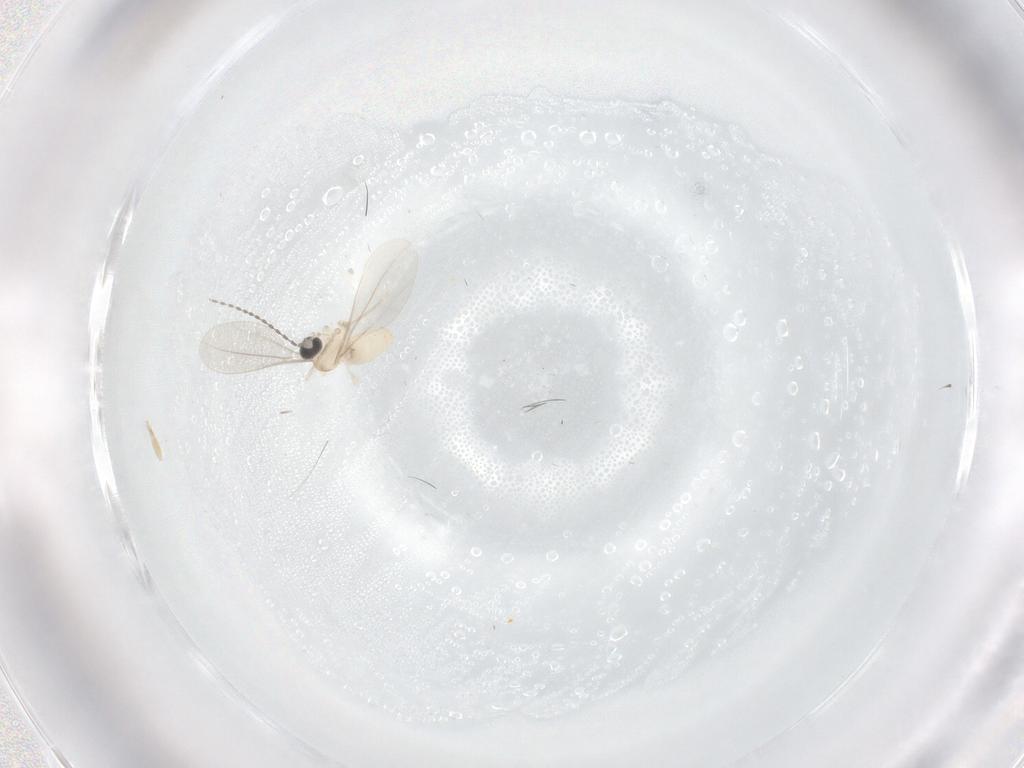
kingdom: Animalia
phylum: Arthropoda
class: Insecta
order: Diptera
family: Cecidomyiidae
